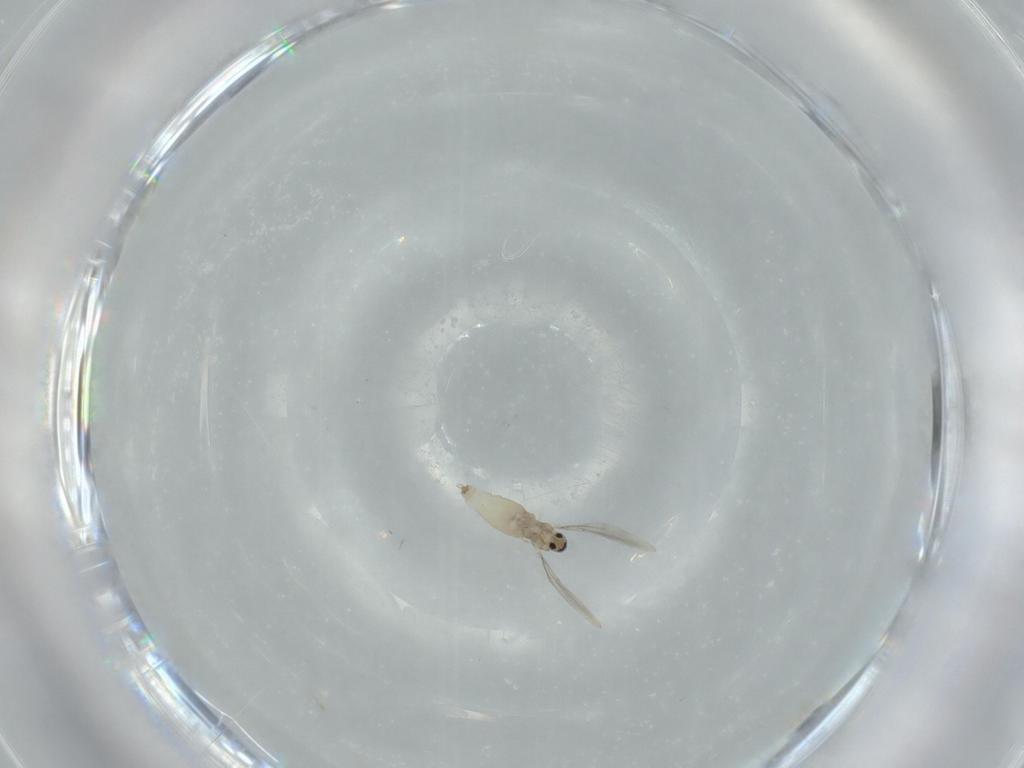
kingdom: Animalia
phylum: Arthropoda
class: Insecta
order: Diptera
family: Cecidomyiidae
